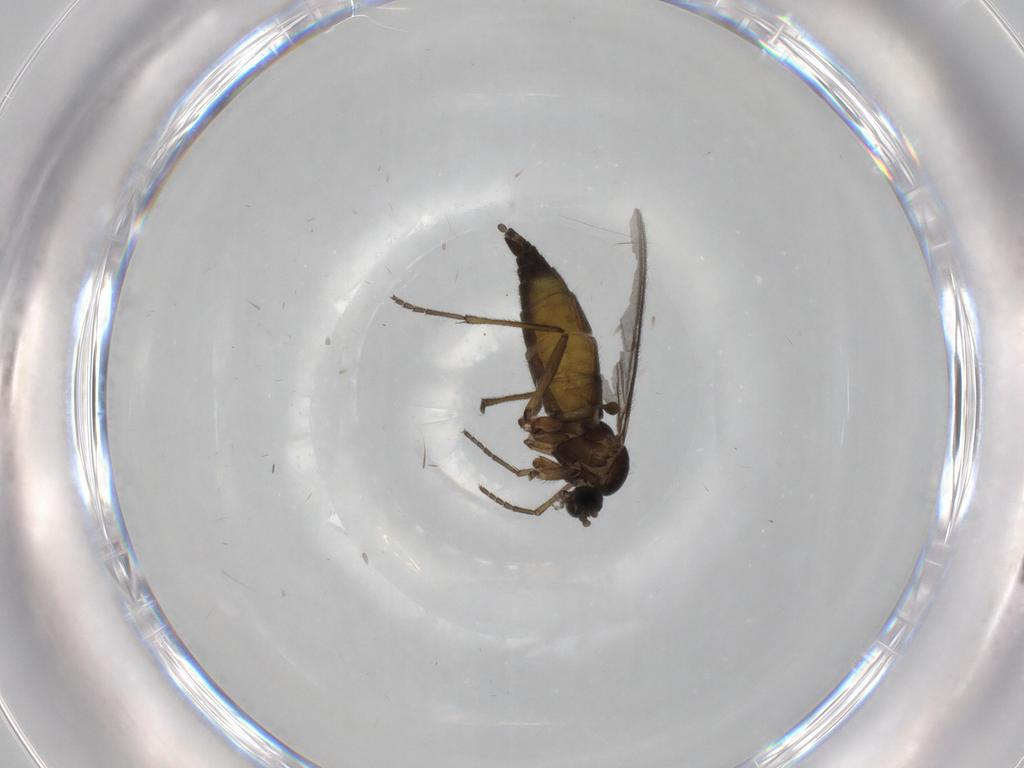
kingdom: Animalia
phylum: Arthropoda
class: Insecta
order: Diptera
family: Sciaridae
